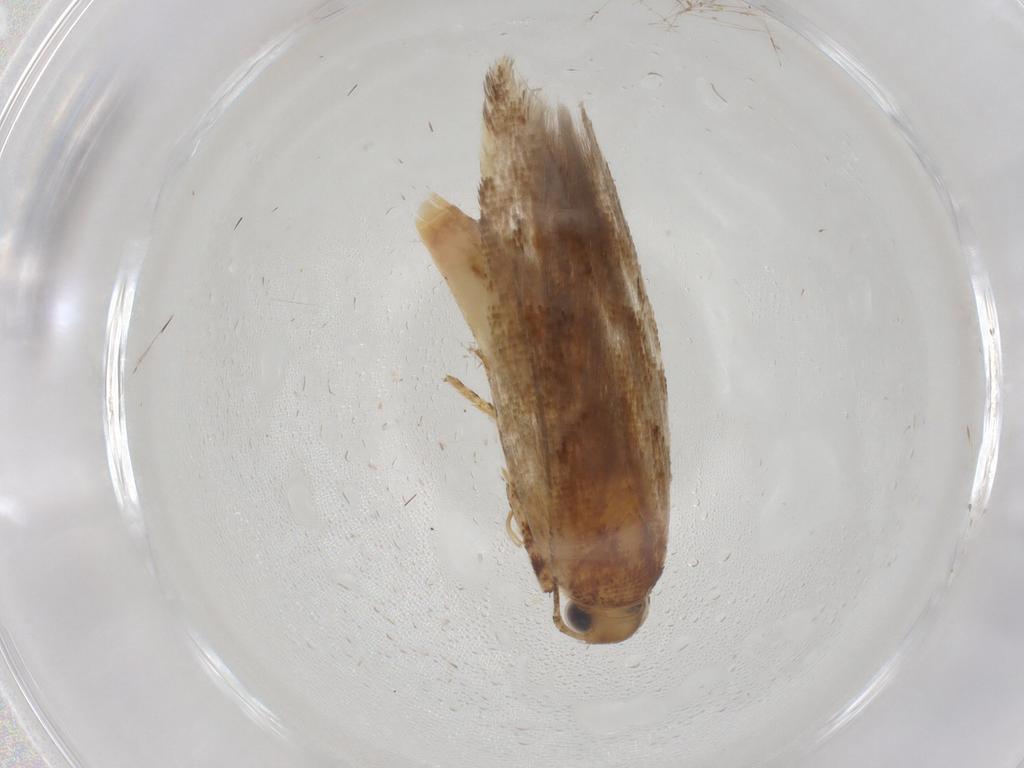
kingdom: Animalia
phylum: Arthropoda
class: Insecta
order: Lepidoptera
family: Gelechiidae
